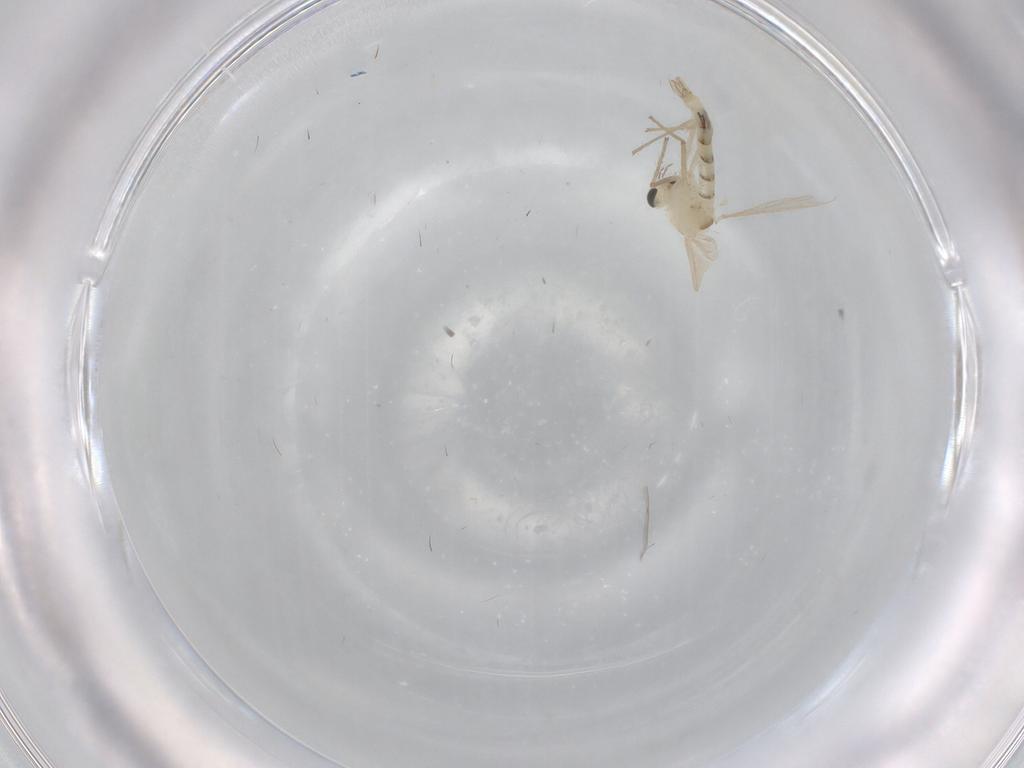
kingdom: Animalia
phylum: Arthropoda
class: Insecta
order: Diptera
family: Chironomidae
